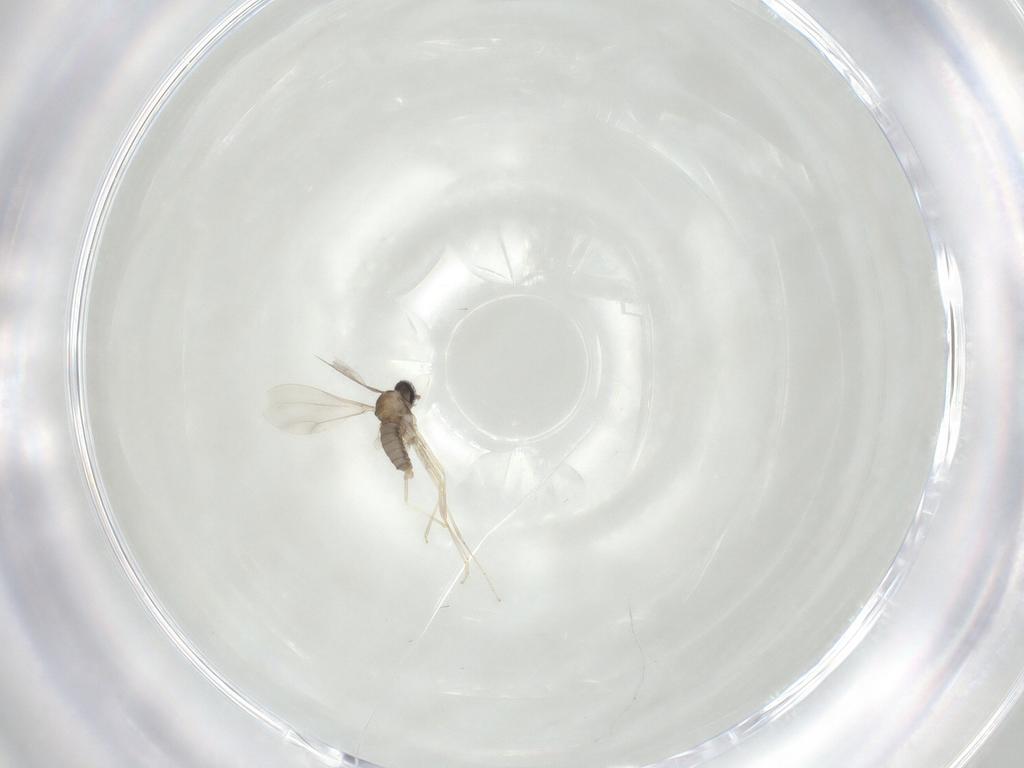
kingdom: Animalia
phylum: Arthropoda
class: Insecta
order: Diptera
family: Cecidomyiidae
